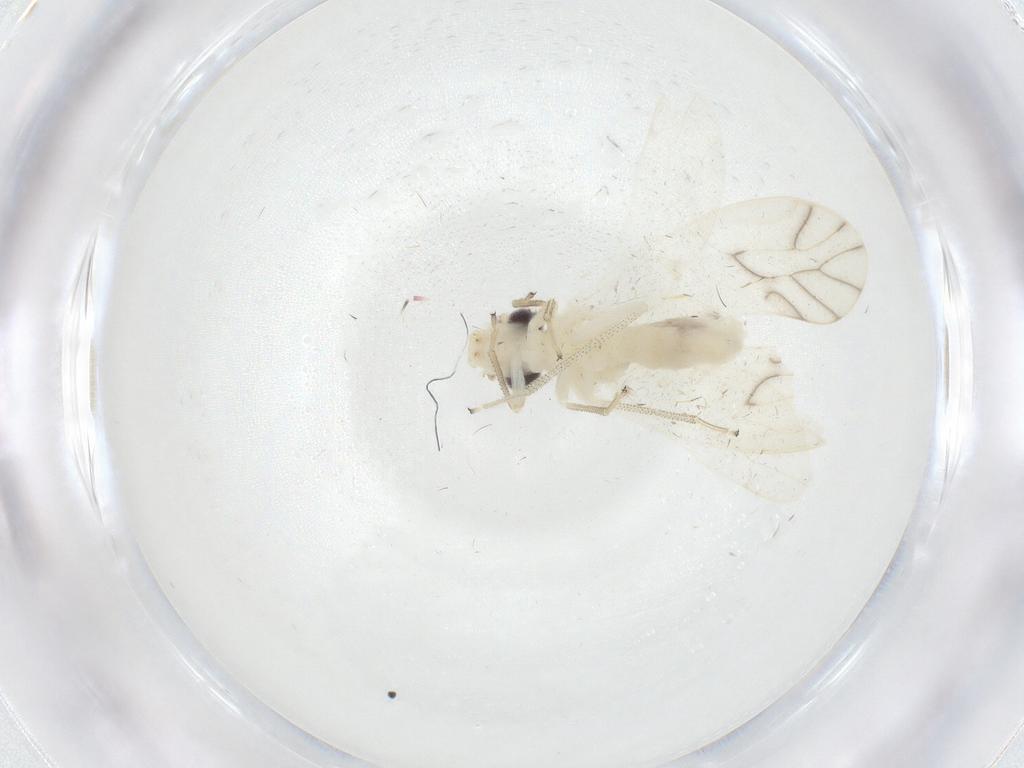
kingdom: Animalia
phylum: Arthropoda
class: Insecta
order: Psocodea
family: Caeciliusidae
